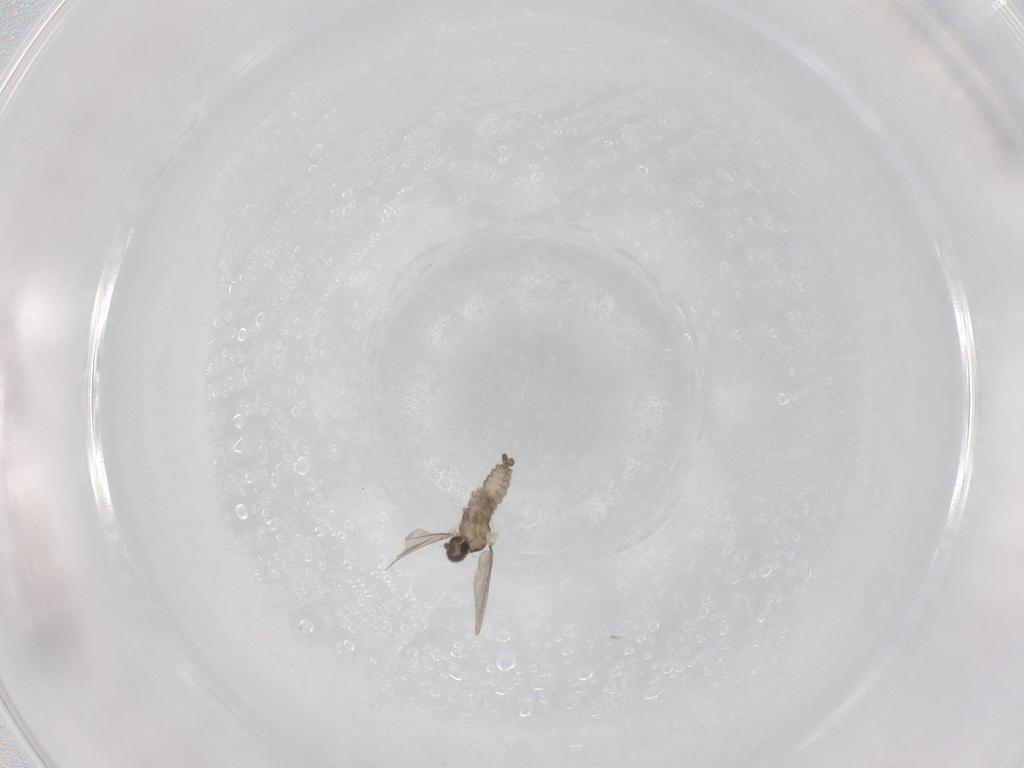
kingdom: Animalia
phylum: Arthropoda
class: Insecta
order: Diptera
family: Cecidomyiidae
